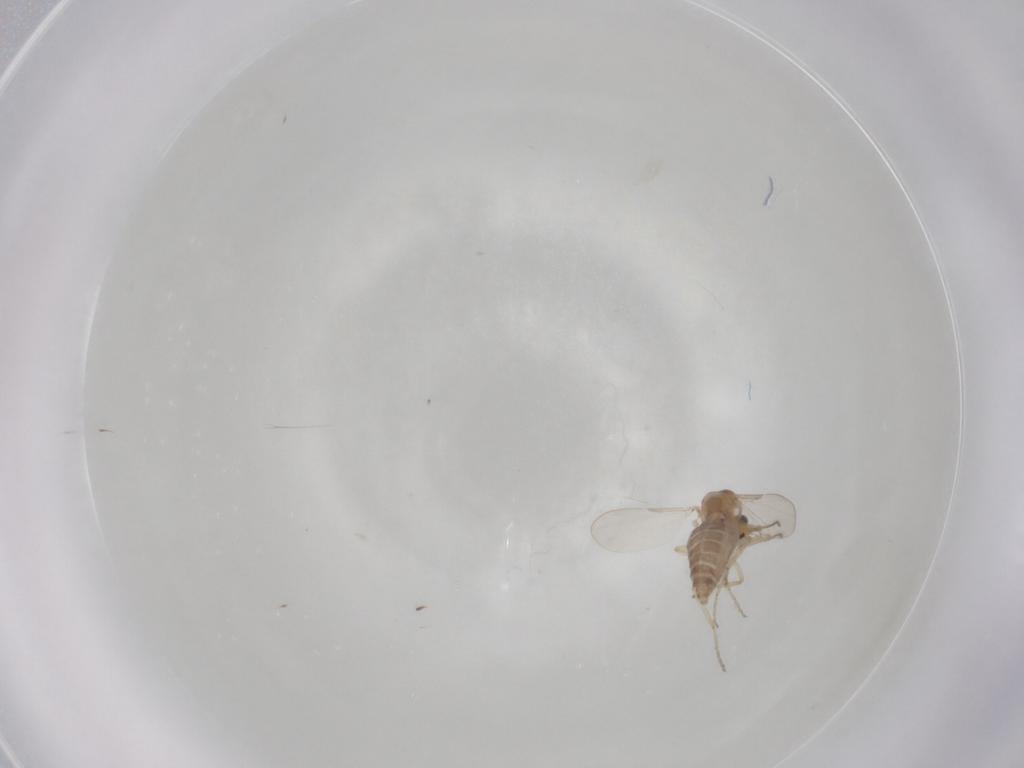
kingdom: Animalia
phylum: Arthropoda
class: Insecta
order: Diptera
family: Ceratopogonidae
